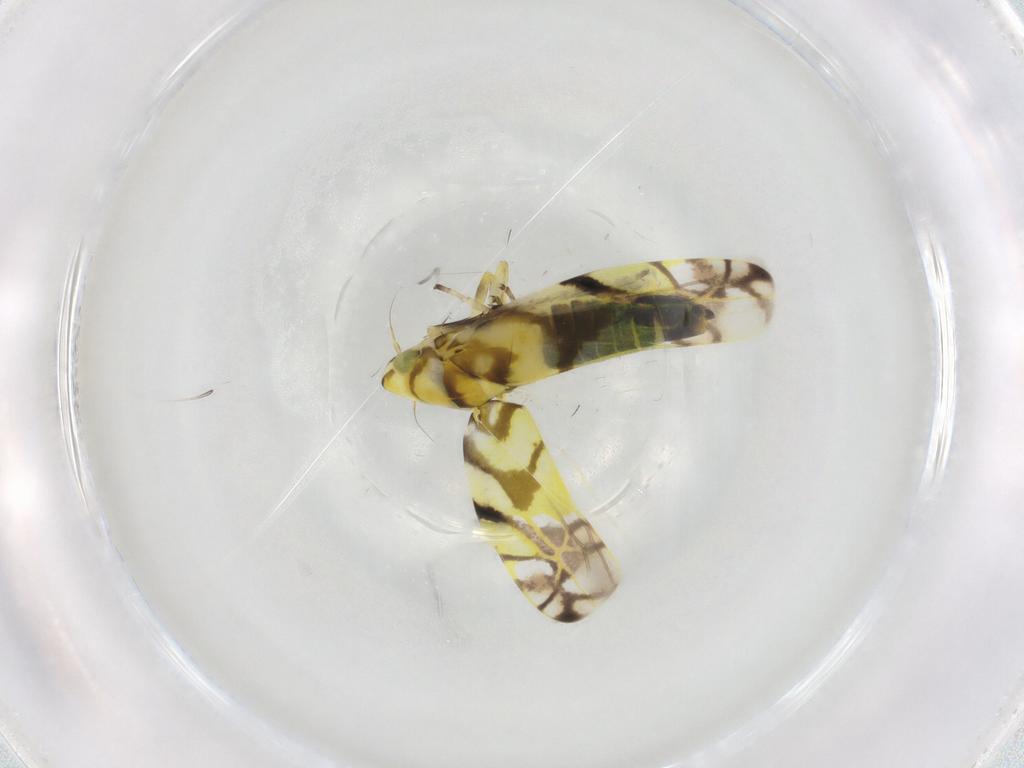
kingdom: Animalia
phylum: Arthropoda
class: Insecta
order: Hemiptera
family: Cicadellidae
